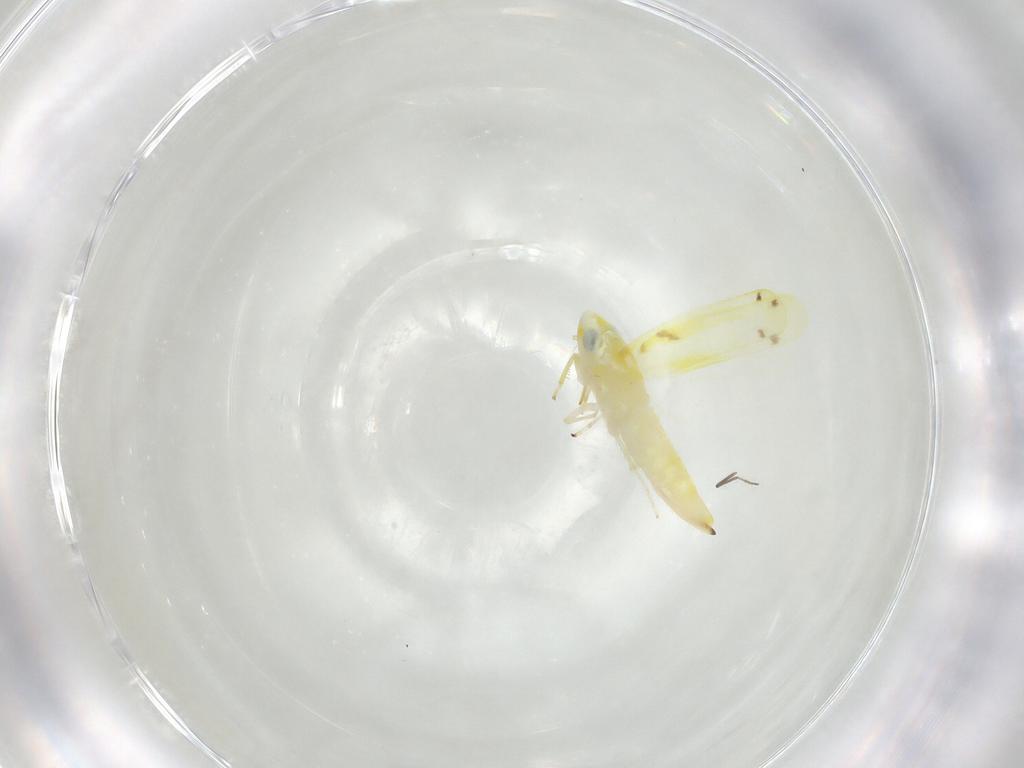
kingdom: Animalia
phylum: Arthropoda
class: Insecta
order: Hemiptera
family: Cicadellidae
